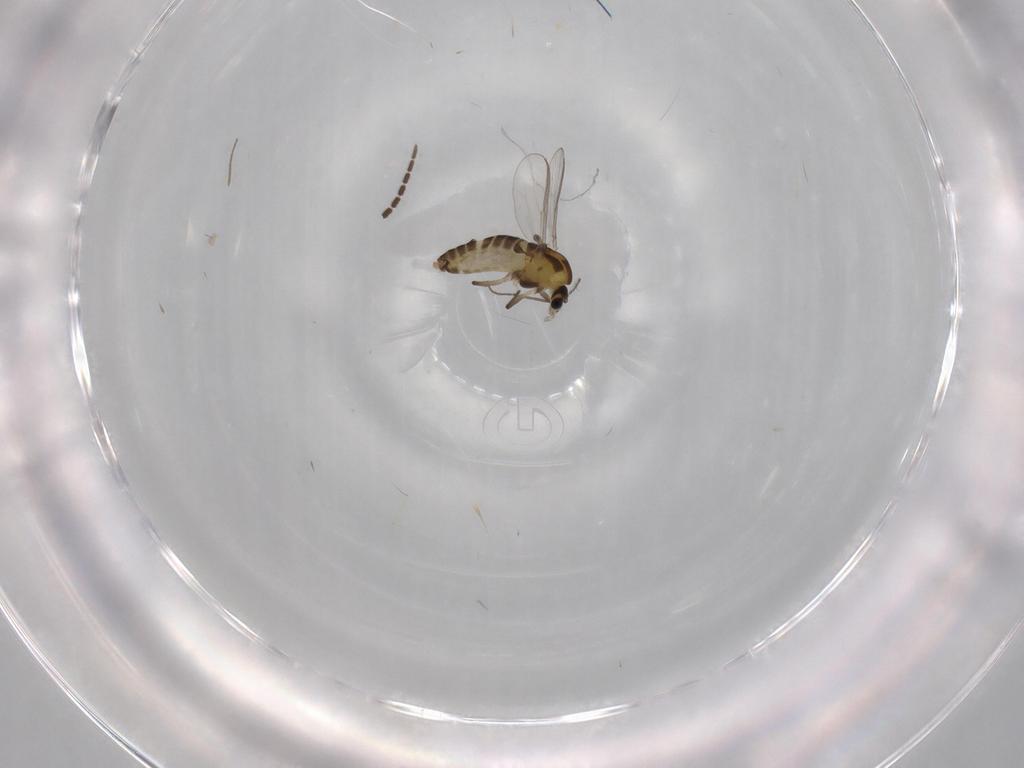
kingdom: Animalia
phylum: Arthropoda
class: Insecta
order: Diptera
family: Chironomidae
